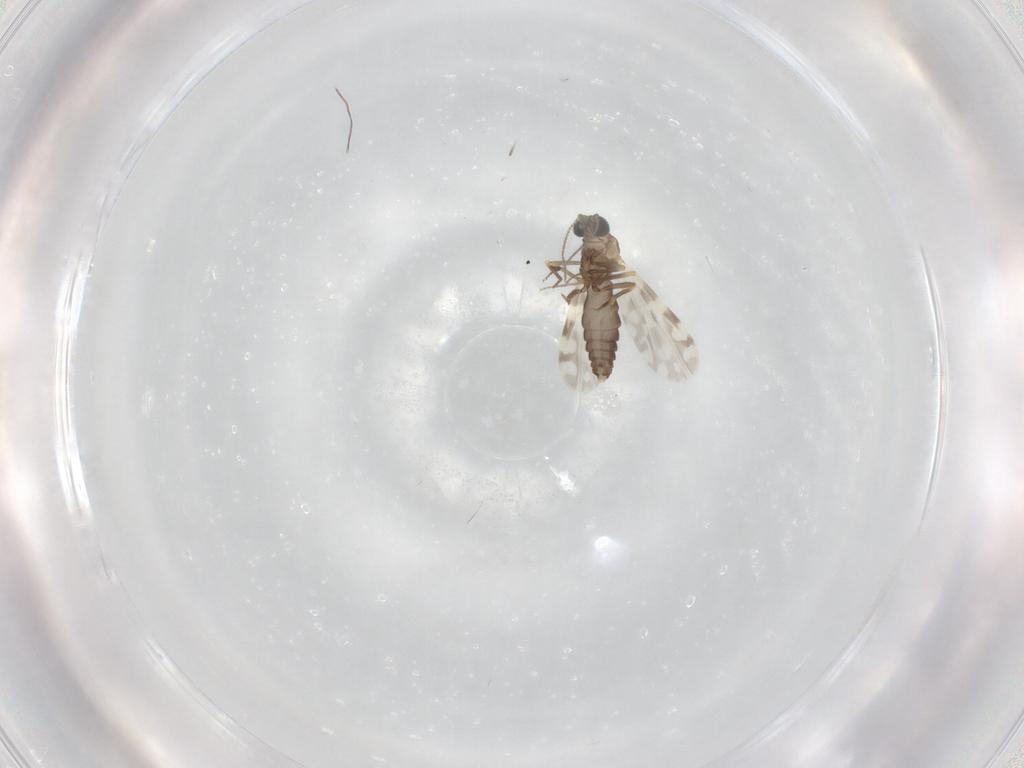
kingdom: Animalia
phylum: Arthropoda
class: Insecta
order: Diptera
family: Ceratopogonidae
